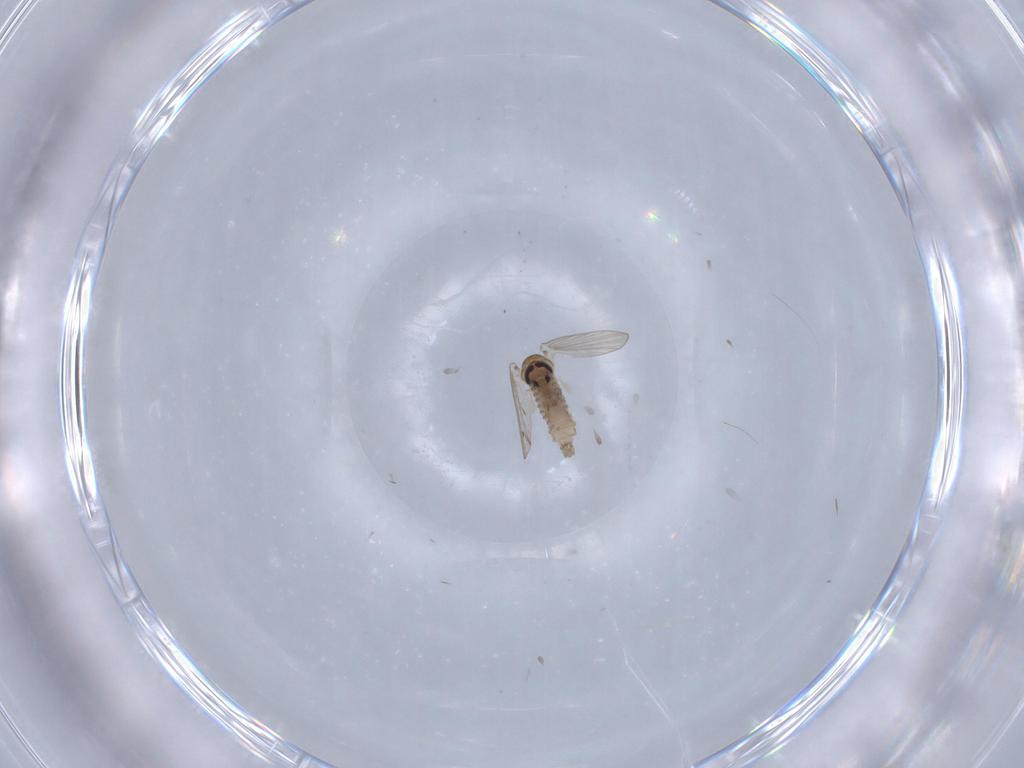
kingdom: Animalia
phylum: Arthropoda
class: Insecta
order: Diptera
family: Psychodidae
